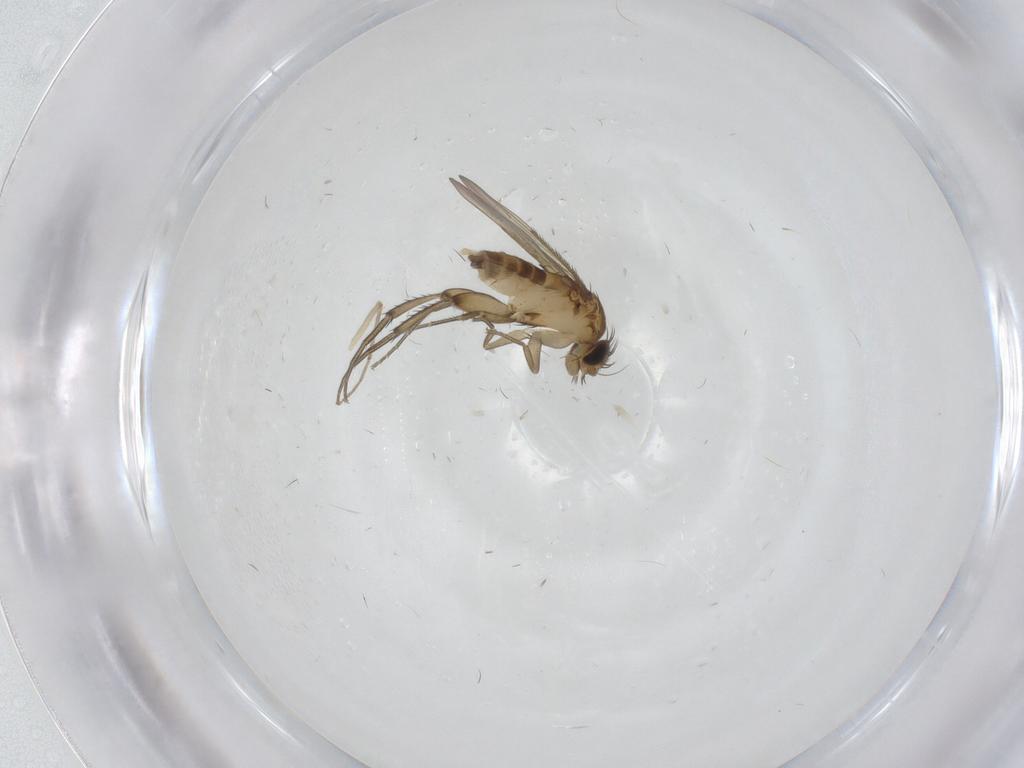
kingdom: Animalia
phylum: Arthropoda
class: Insecta
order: Diptera
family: Phoridae
